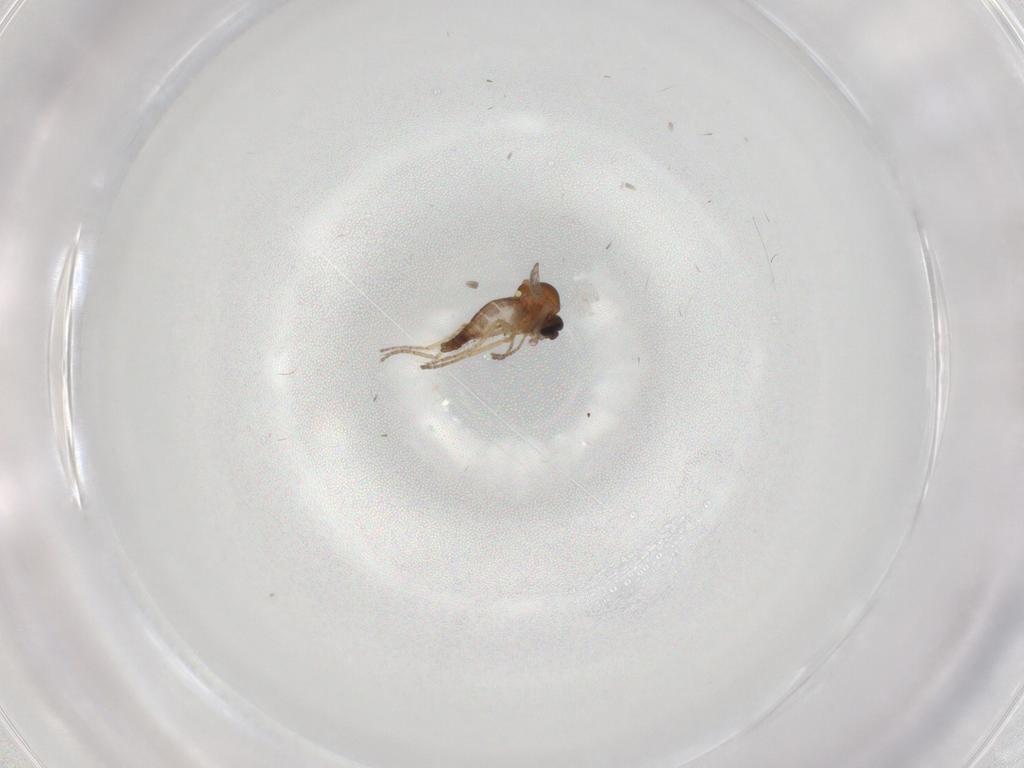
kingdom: Animalia
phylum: Arthropoda
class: Insecta
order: Diptera
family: Ceratopogonidae
